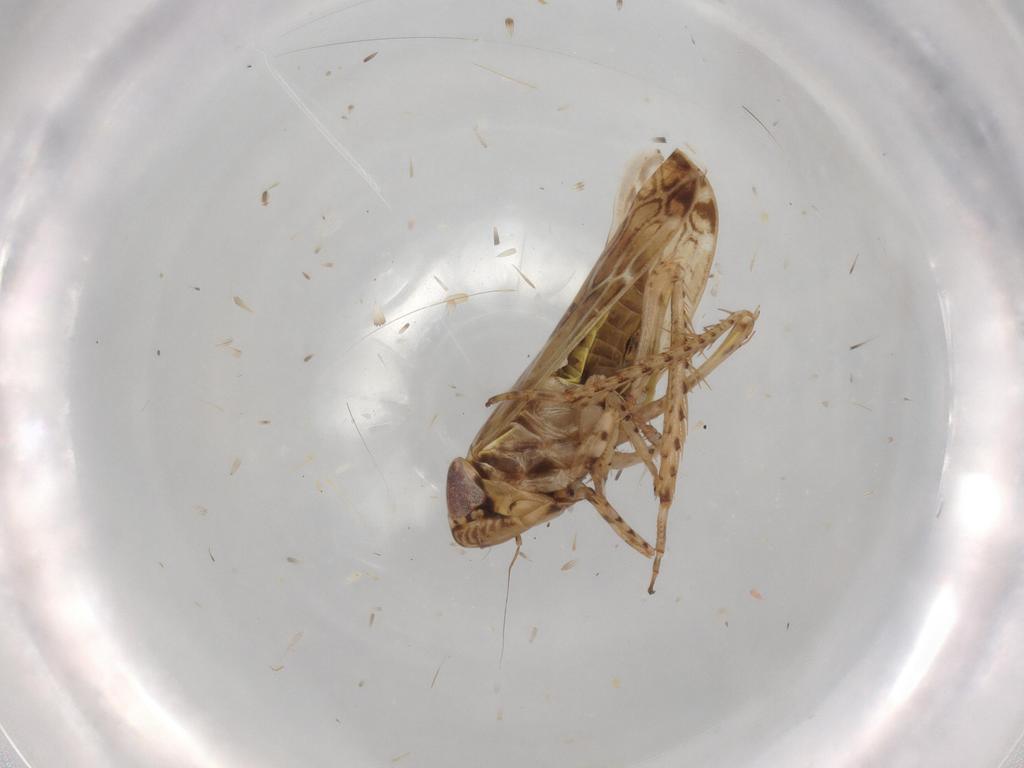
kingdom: Animalia
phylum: Arthropoda
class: Insecta
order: Hemiptera
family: Cicadellidae
